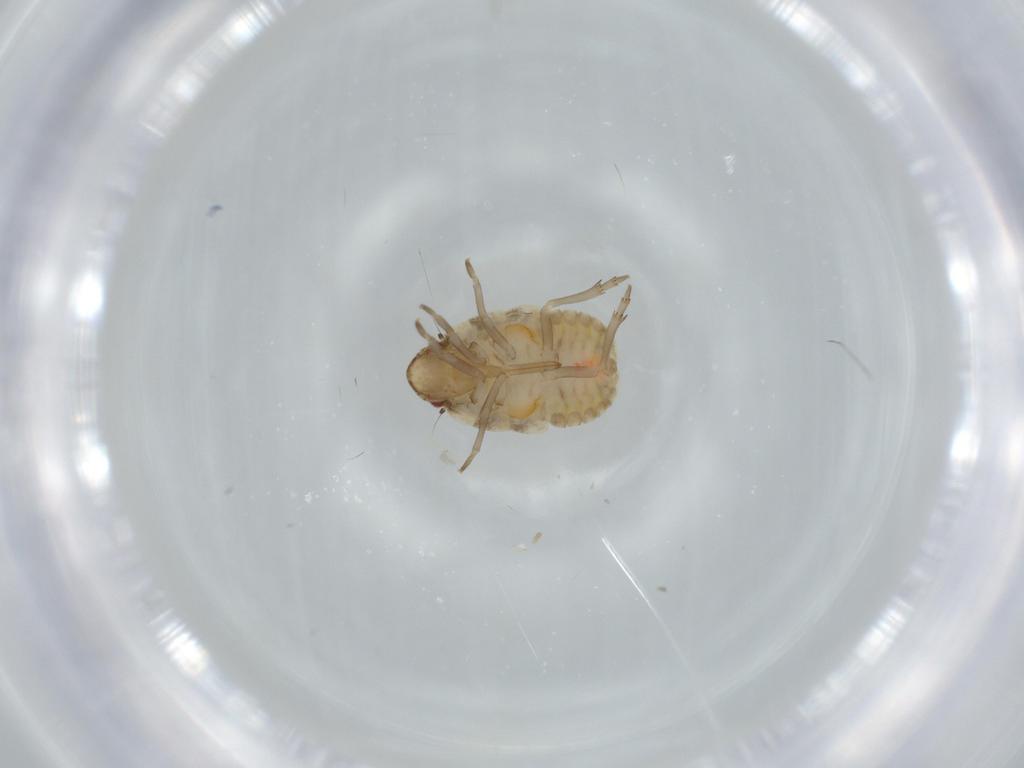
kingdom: Animalia
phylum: Arthropoda
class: Insecta
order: Hemiptera
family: Flatidae
